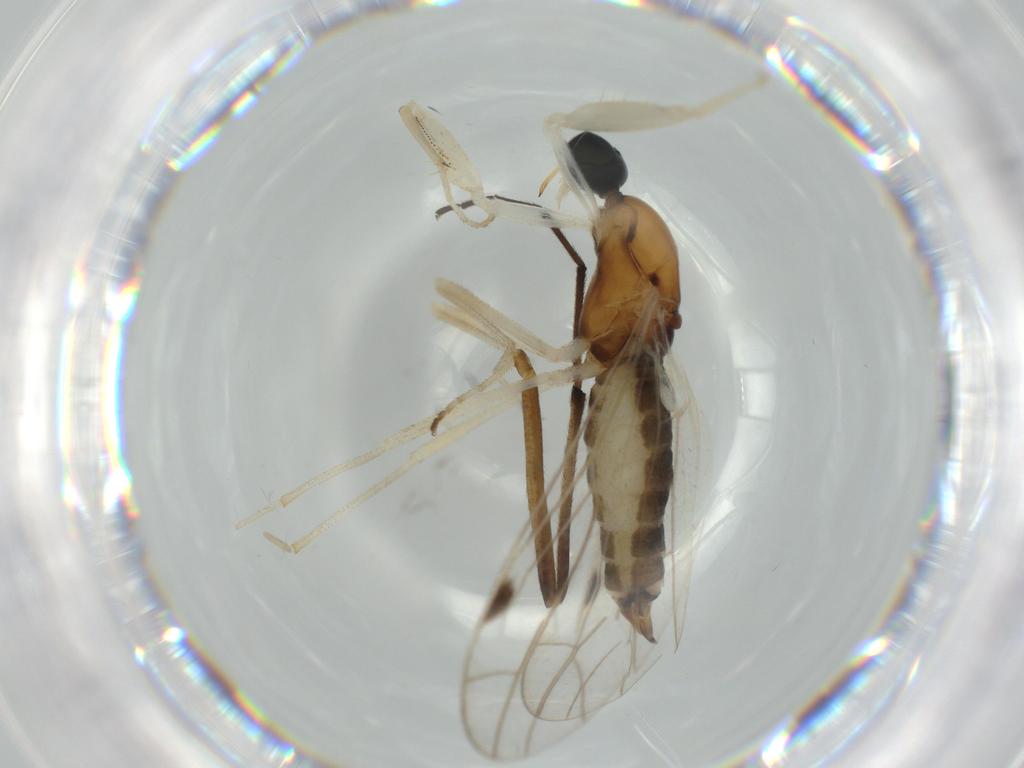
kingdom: Animalia
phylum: Arthropoda
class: Insecta
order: Diptera
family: Empididae
